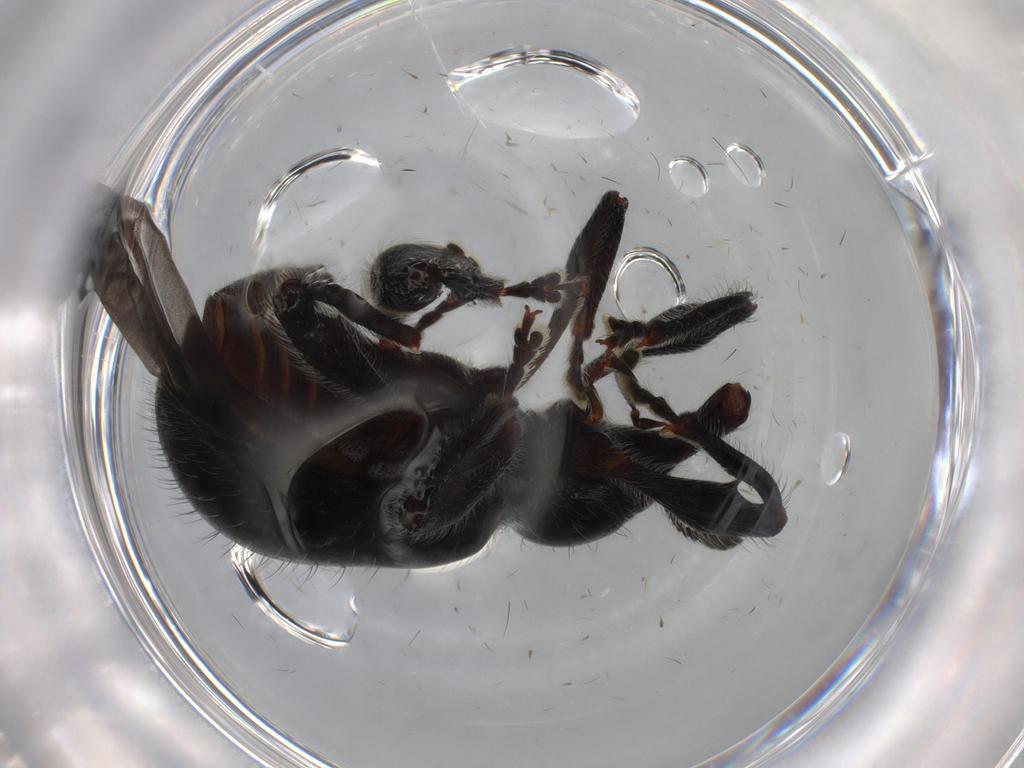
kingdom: Animalia
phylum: Arthropoda
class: Insecta
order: Coleoptera
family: Curculionidae
